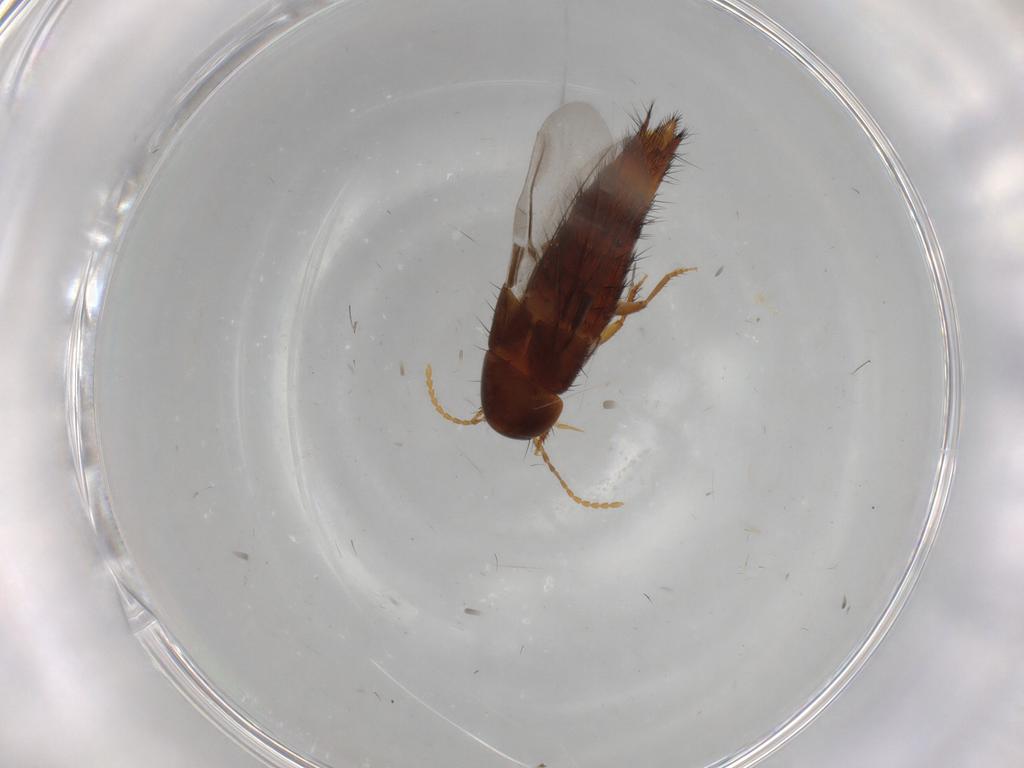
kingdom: Animalia
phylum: Arthropoda
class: Insecta
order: Coleoptera
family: Staphylinidae
